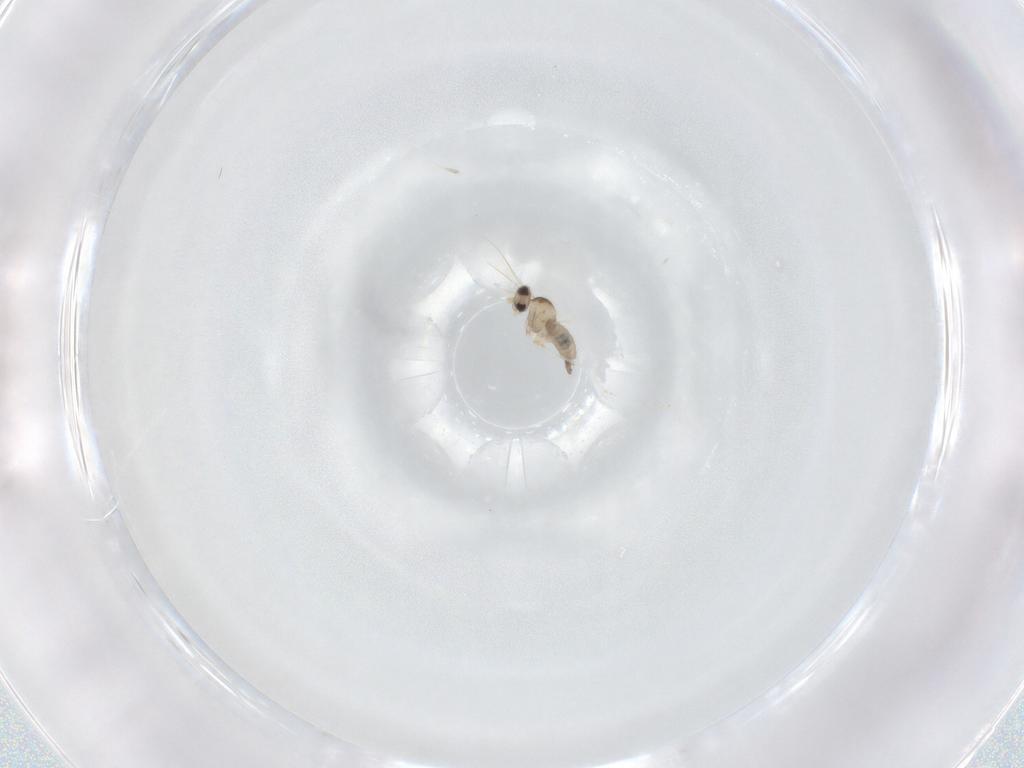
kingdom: Animalia
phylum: Arthropoda
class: Insecta
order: Diptera
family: Cecidomyiidae
